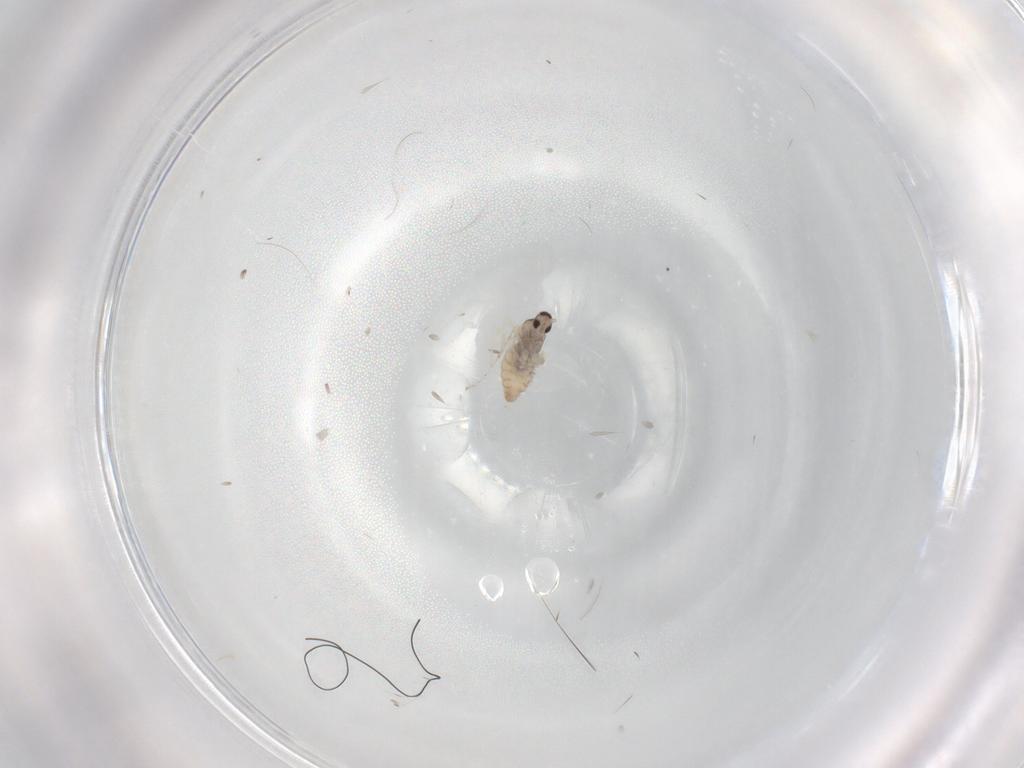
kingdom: Animalia
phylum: Arthropoda
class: Insecta
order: Diptera
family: Cecidomyiidae
